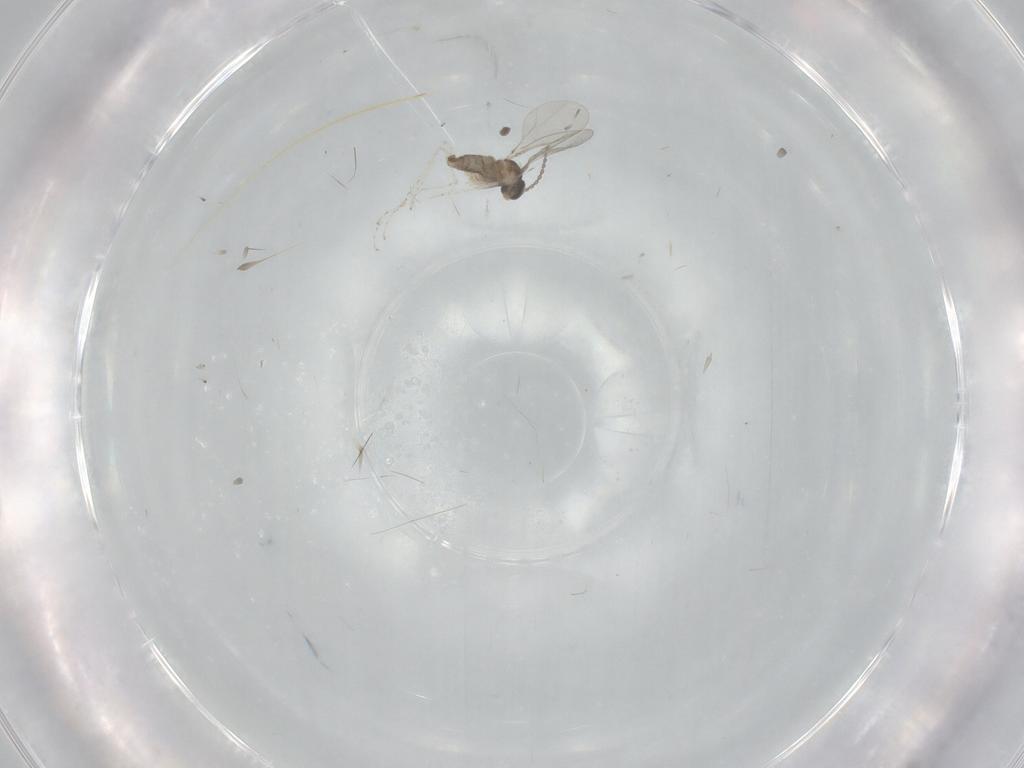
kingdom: Animalia
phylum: Arthropoda
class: Insecta
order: Diptera
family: Cecidomyiidae
